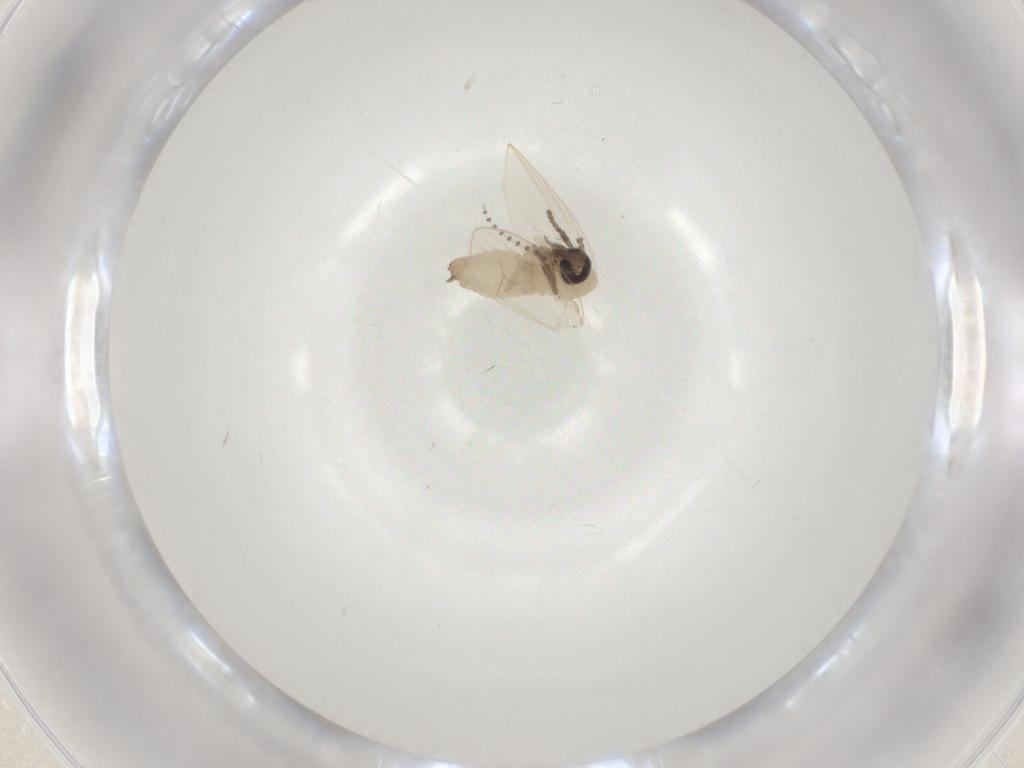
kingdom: Animalia
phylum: Arthropoda
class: Insecta
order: Diptera
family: Psychodidae
